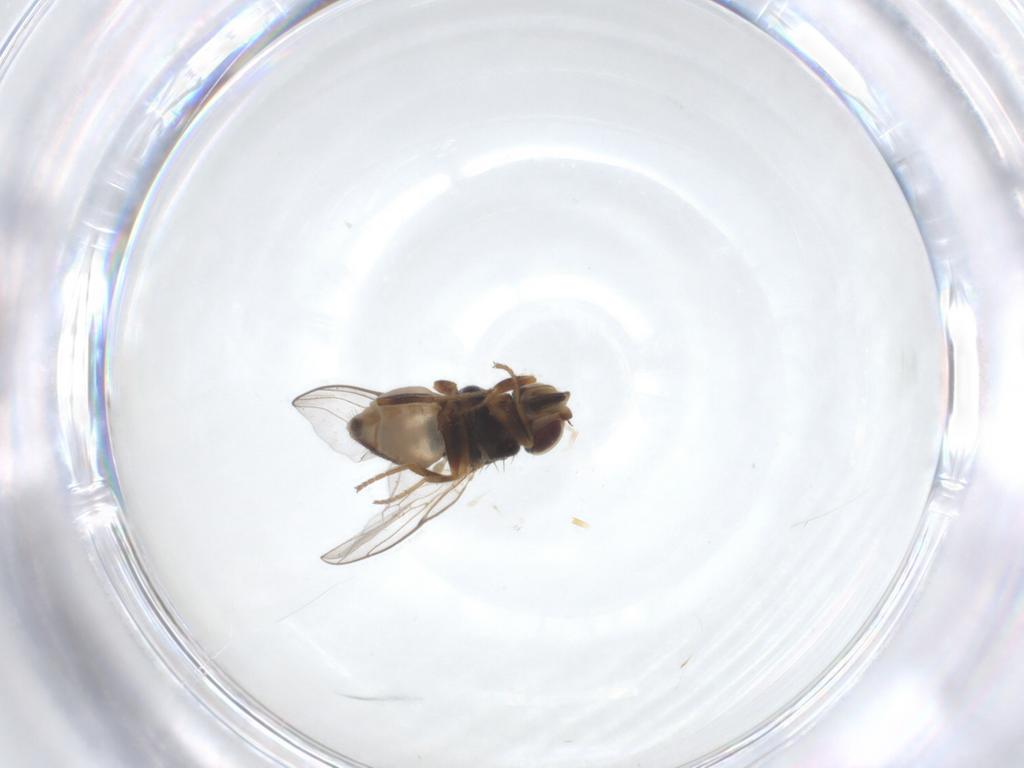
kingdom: Animalia
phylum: Arthropoda
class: Insecta
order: Diptera
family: Chloropidae
